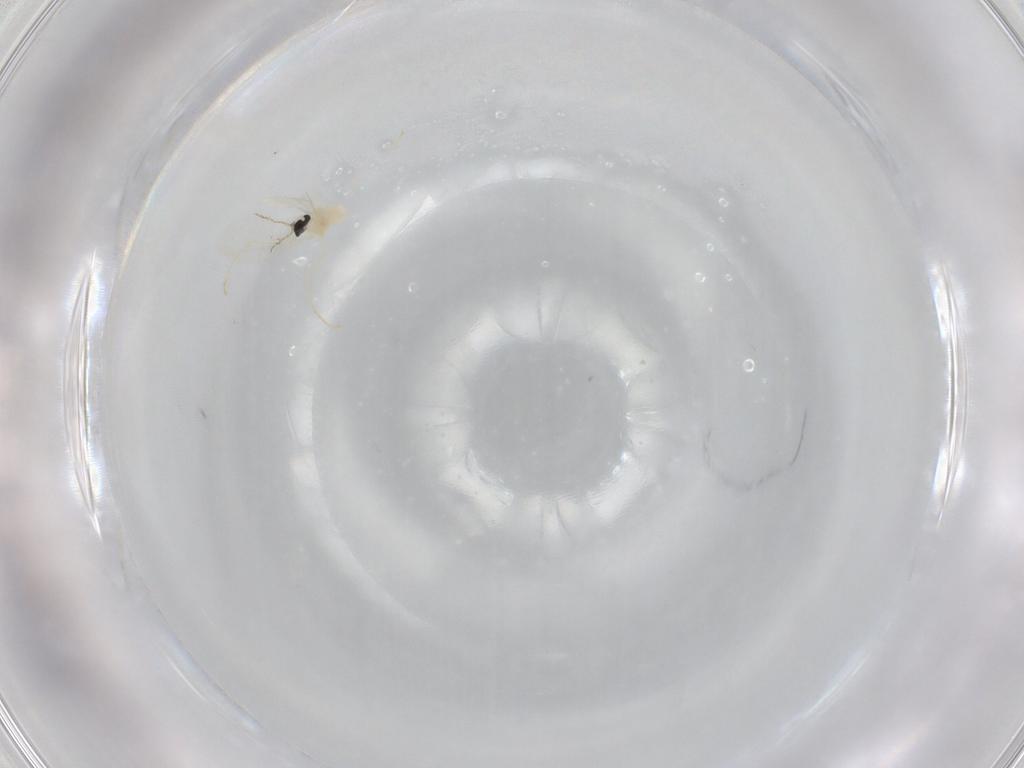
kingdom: Animalia
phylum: Arthropoda
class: Insecta
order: Diptera
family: Cecidomyiidae
